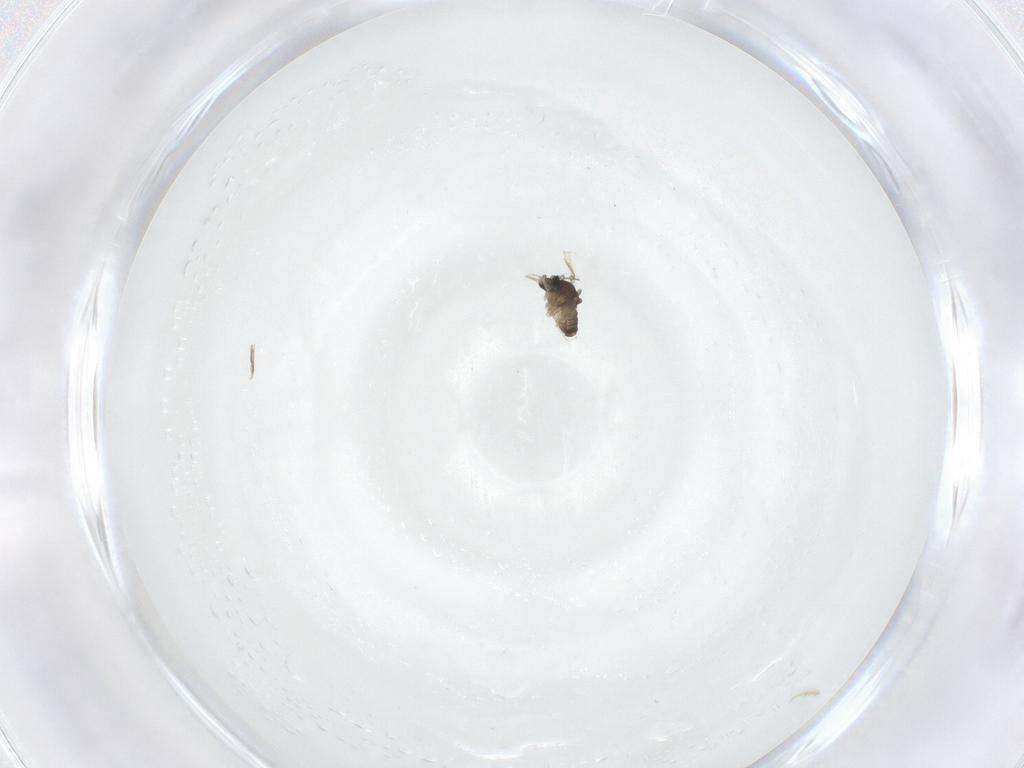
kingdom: Animalia
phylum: Arthropoda
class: Insecta
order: Diptera
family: Cecidomyiidae
